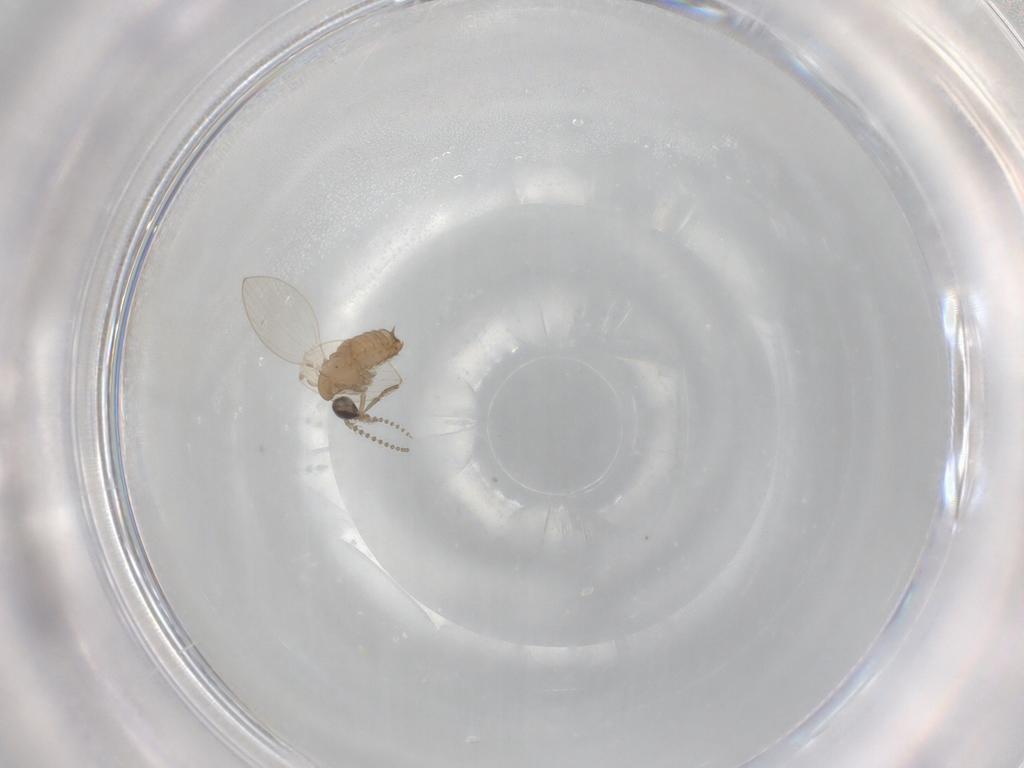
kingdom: Animalia
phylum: Arthropoda
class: Insecta
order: Diptera
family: Psychodidae
